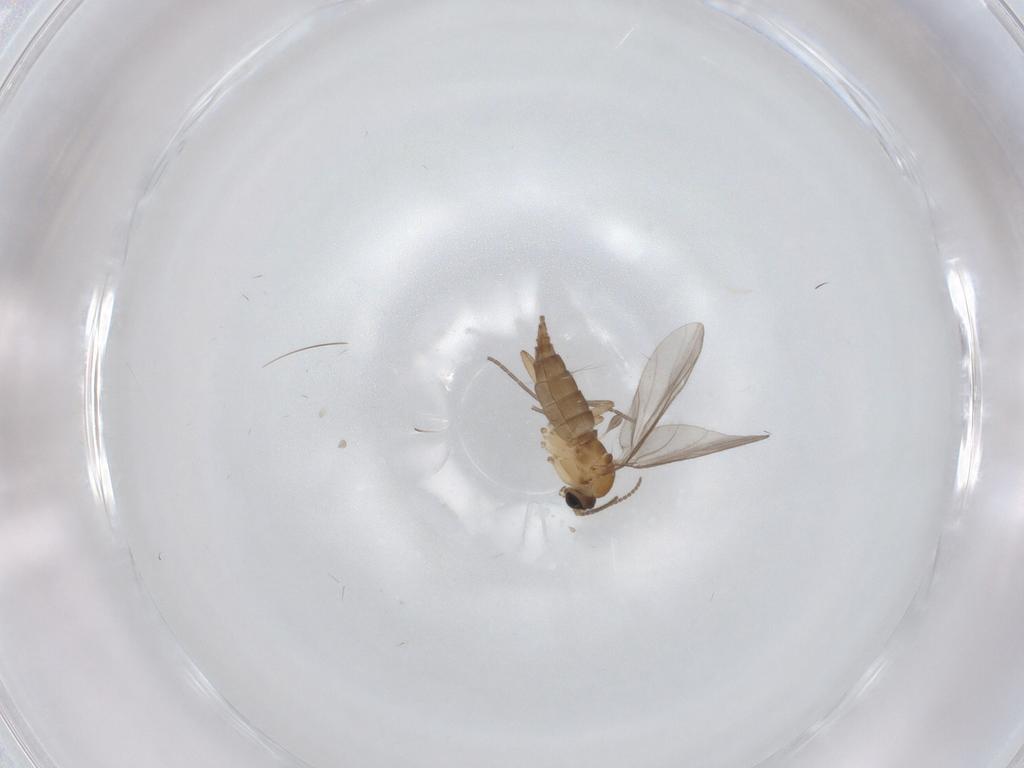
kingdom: Animalia
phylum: Arthropoda
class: Insecta
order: Diptera
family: Sciaridae
